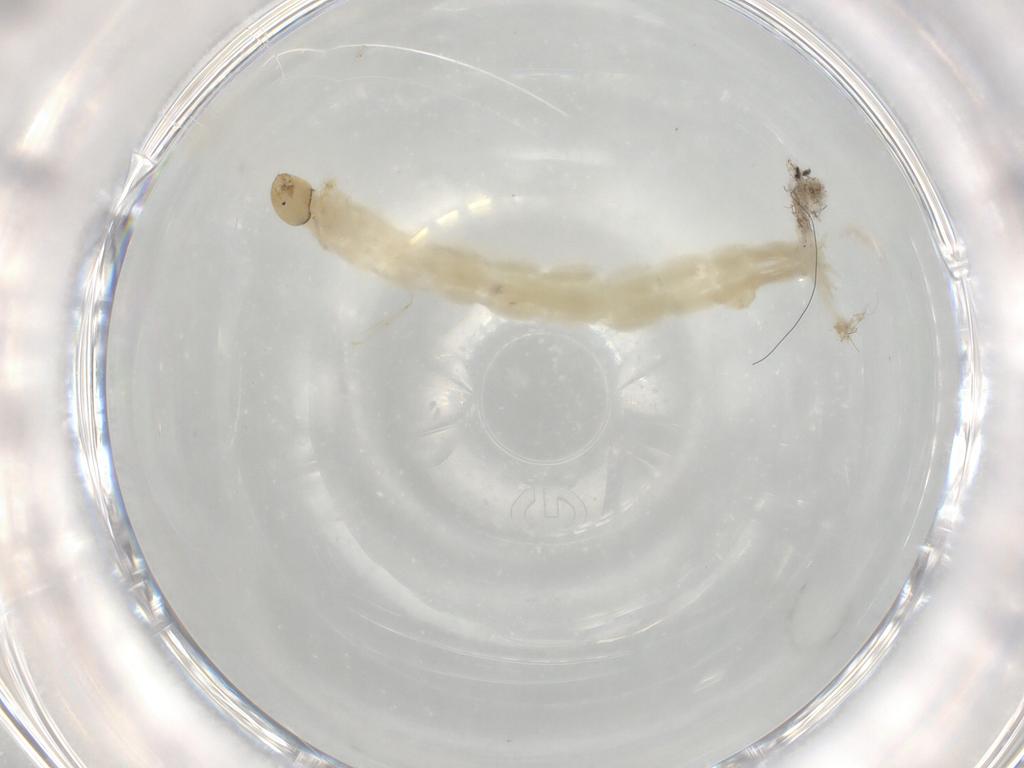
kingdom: Animalia
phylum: Arthropoda
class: Insecta
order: Diptera
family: Chironomidae
